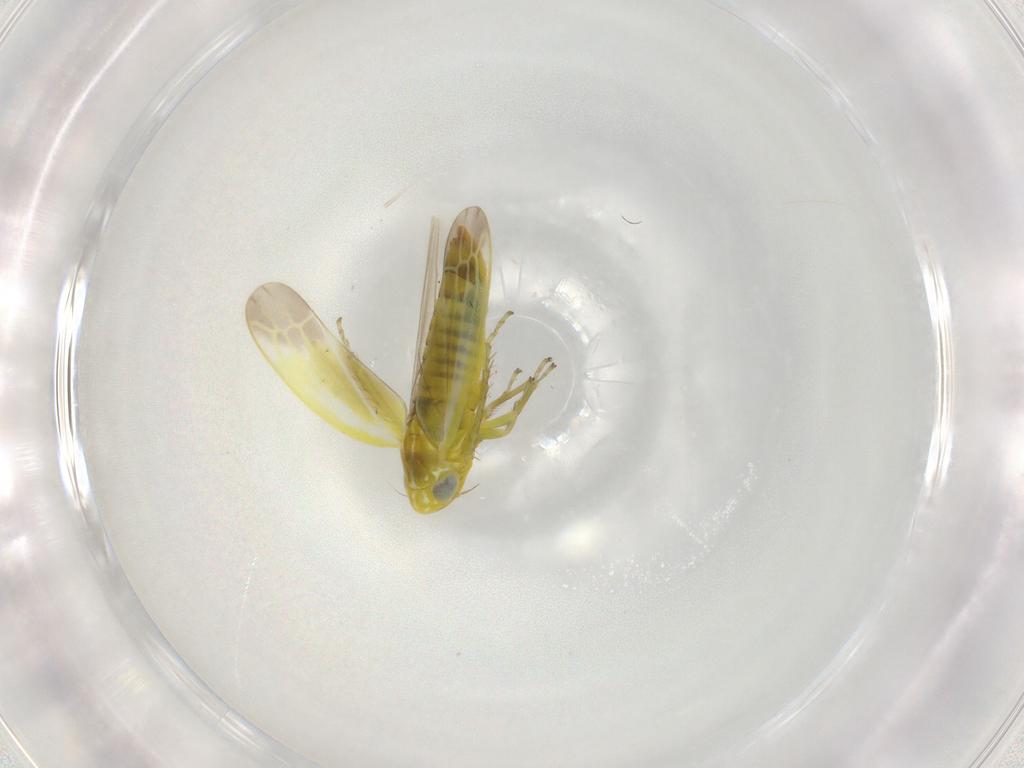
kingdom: Animalia
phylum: Arthropoda
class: Insecta
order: Hemiptera
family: Cicadellidae
